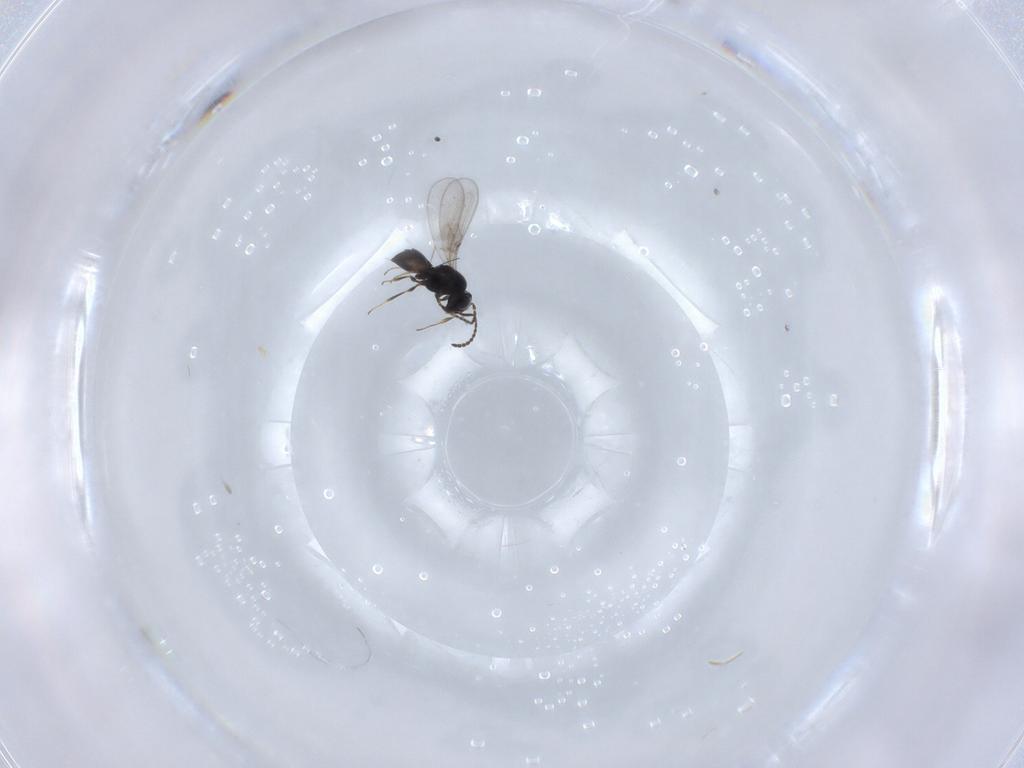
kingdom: Animalia
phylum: Arthropoda
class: Insecta
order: Hymenoptera
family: Scelionidae
